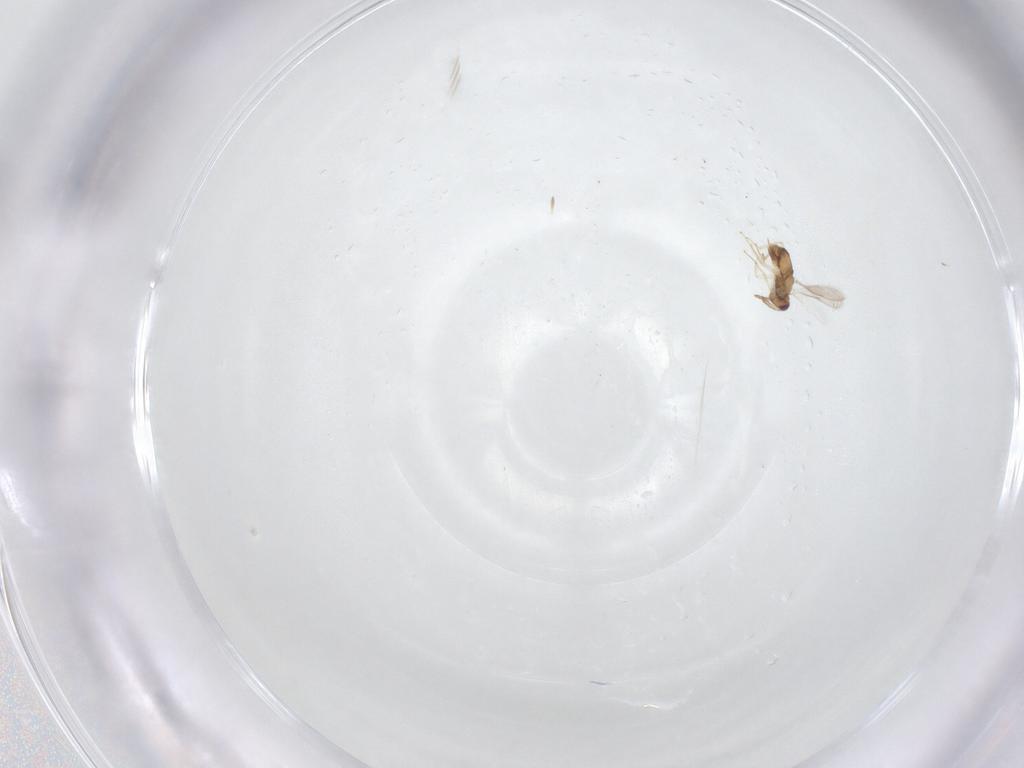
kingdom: Animalia
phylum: Arthropoda
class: Insecta
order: Hymenoptera
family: Aphelinidae
